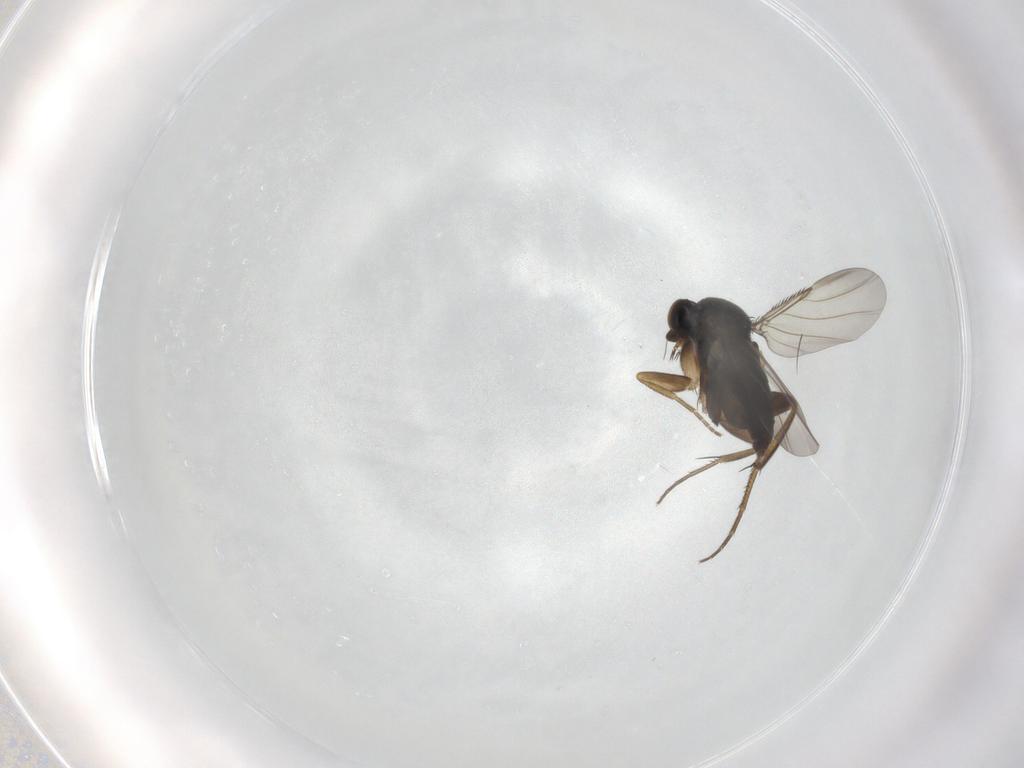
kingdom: Animalia
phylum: Arthropoda
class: Insecta
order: Diptera
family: Phoridae
